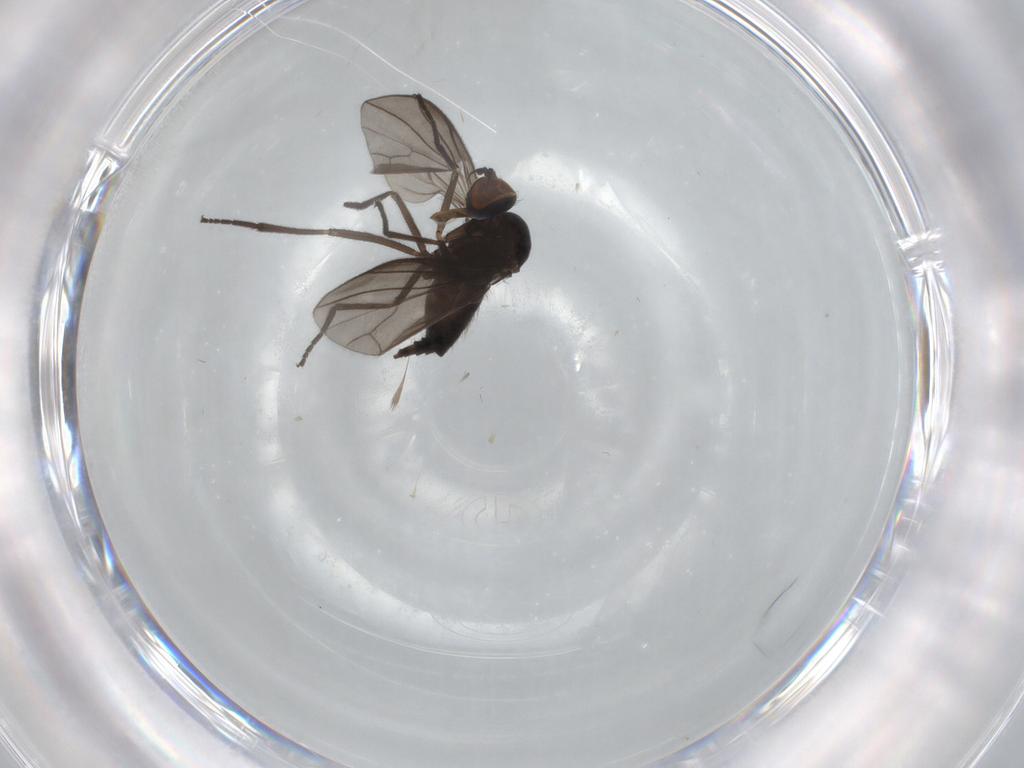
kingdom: Animalia
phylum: Arthropoda
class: Insecta
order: Diptera
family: Empididae
